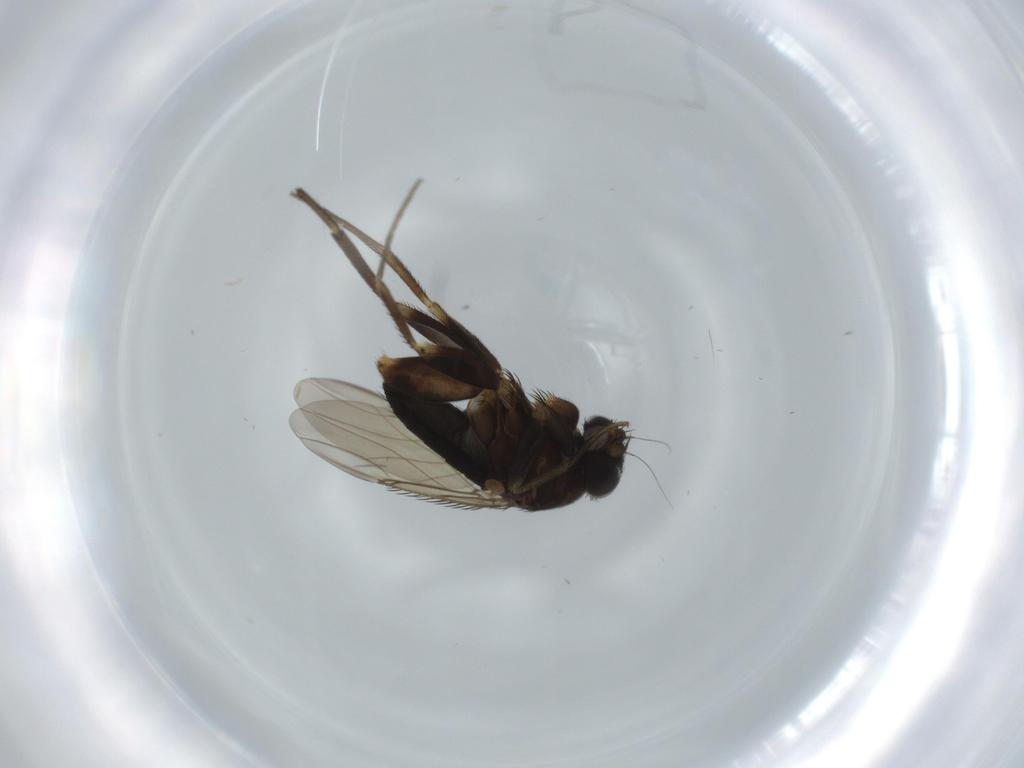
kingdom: Animalia
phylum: Arthropoda
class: Insecta
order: Diptera
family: Phoridae
